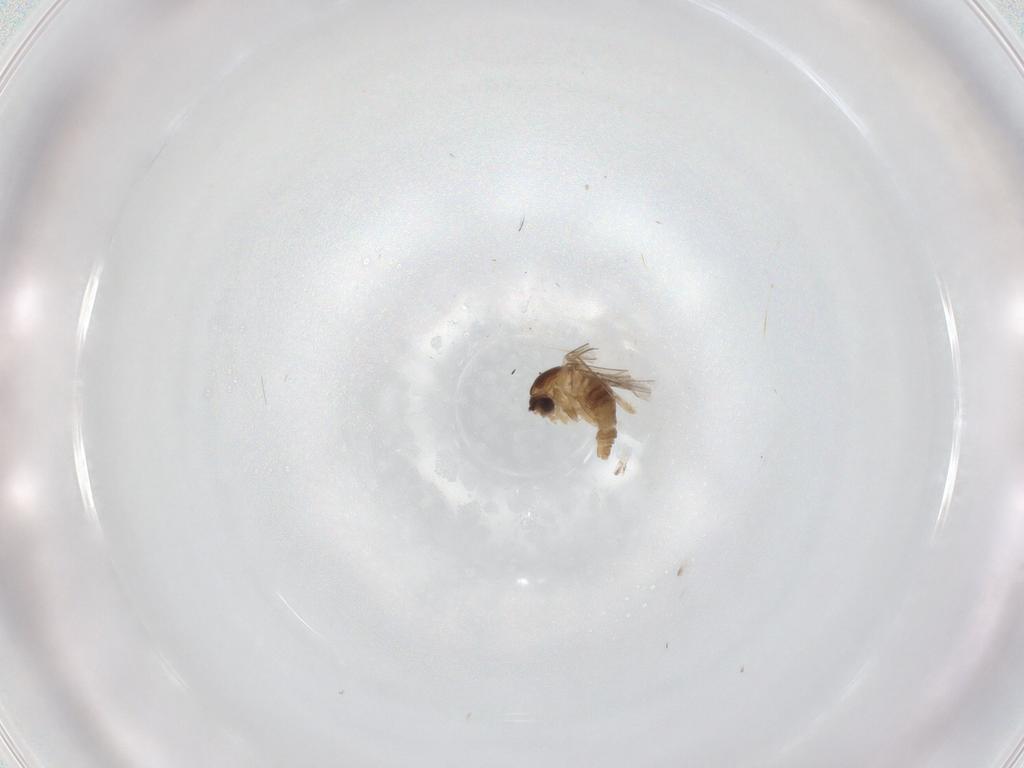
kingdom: Animalia
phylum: Arthropoda
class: Insecta
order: Diptera
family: Cecidomyiidae
